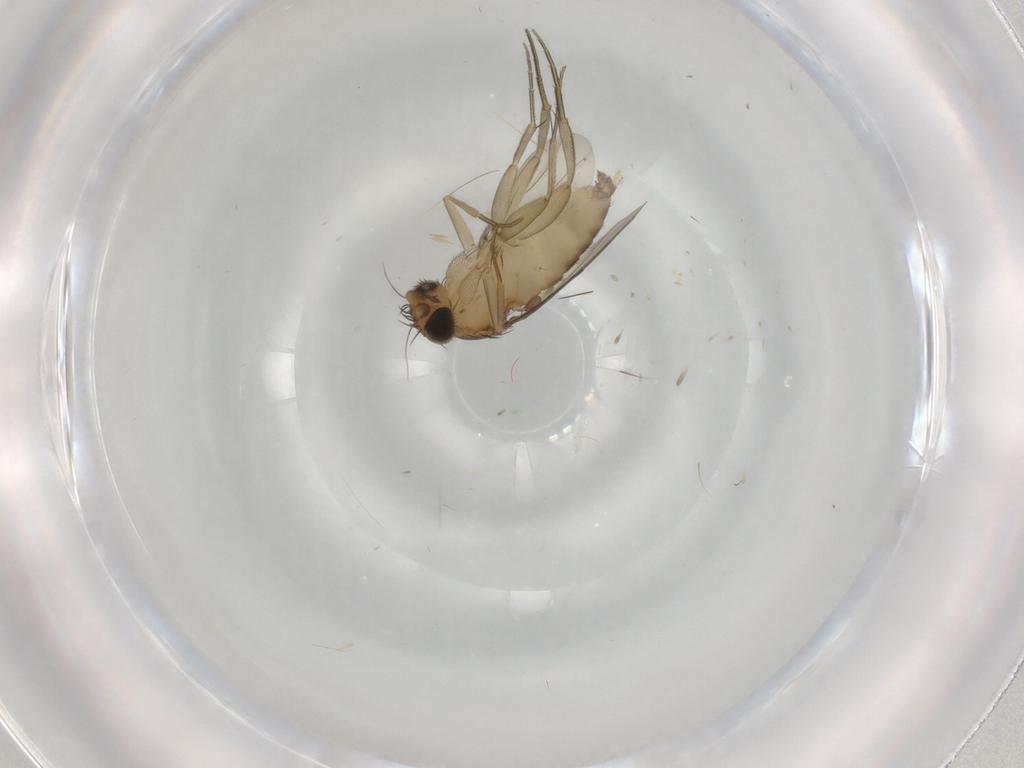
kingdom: Animalia
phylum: Arthropoda
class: Insecta
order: Diptera
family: Phoridae
